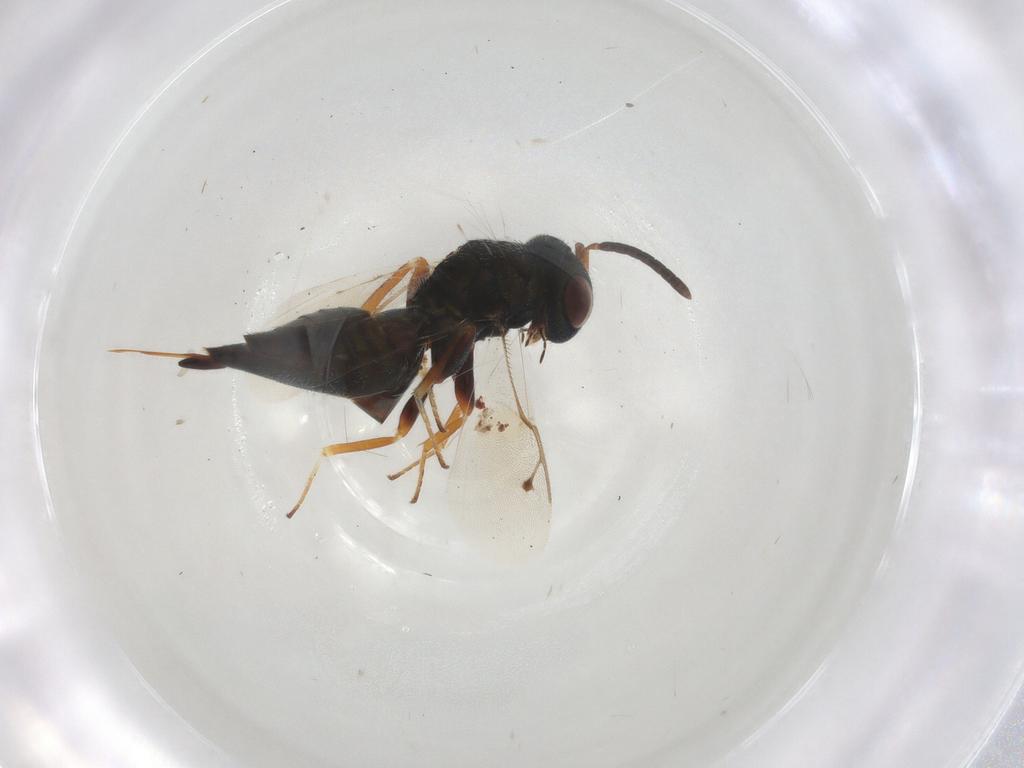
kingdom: Animalia
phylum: Arthropoda
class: Insecta
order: Hymenoptera
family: Pteromalidae
